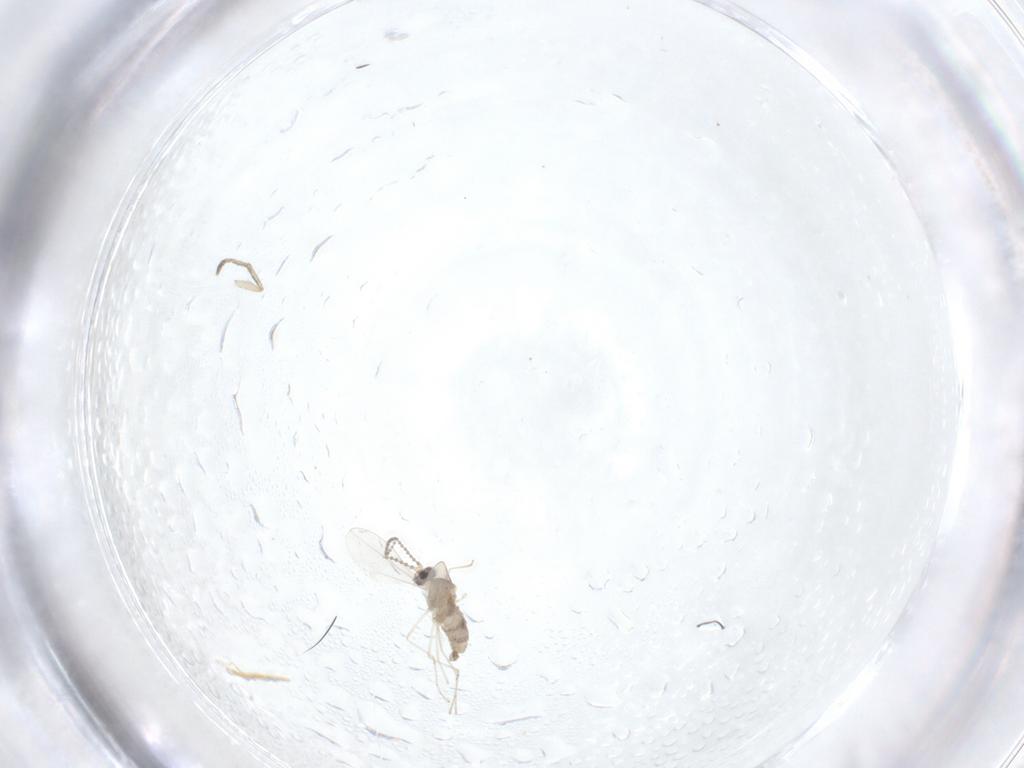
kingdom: Animalia
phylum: Arthropoda
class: Insecta
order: Diptera
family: Cecidomyiidae
